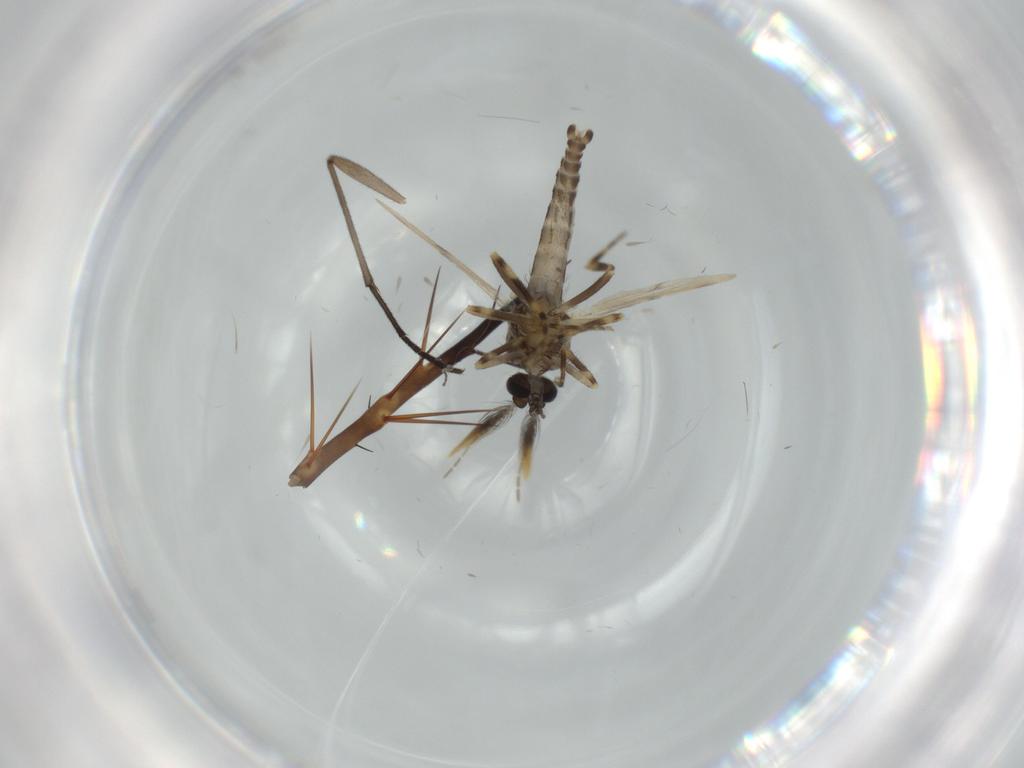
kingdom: Animalia
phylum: Arthropoda
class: Insecta
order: Diptera
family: Sciaridae
